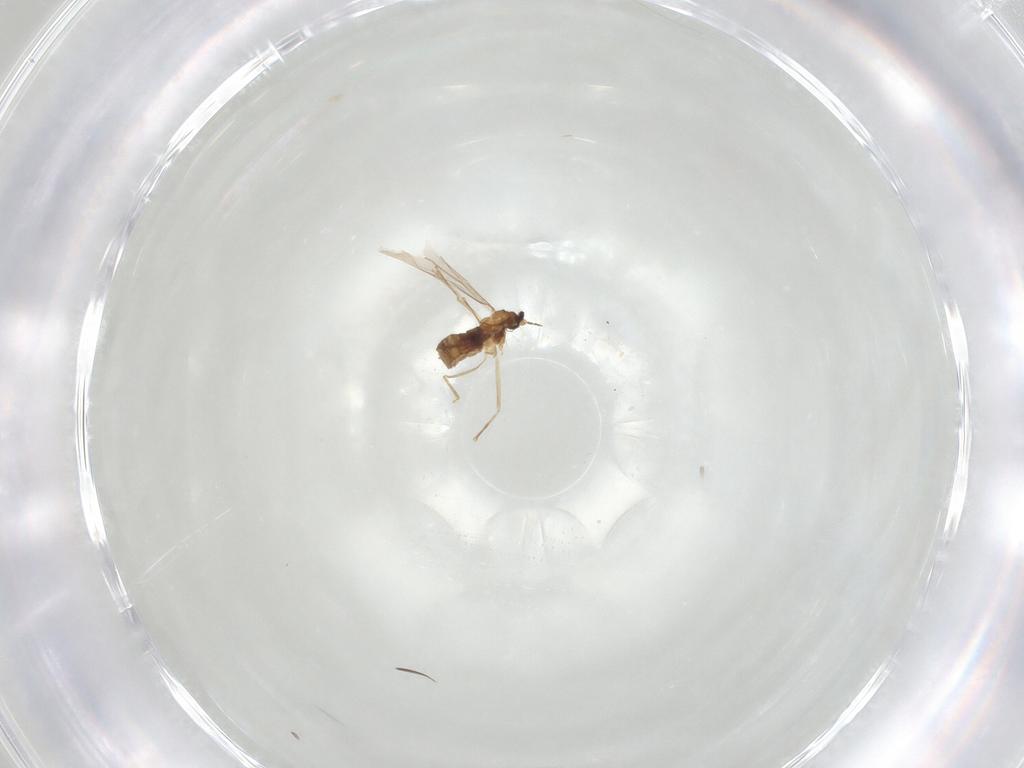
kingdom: Animalia
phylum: Arthropoda
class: Insecta
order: Diptera
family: Cecidomyiidae
